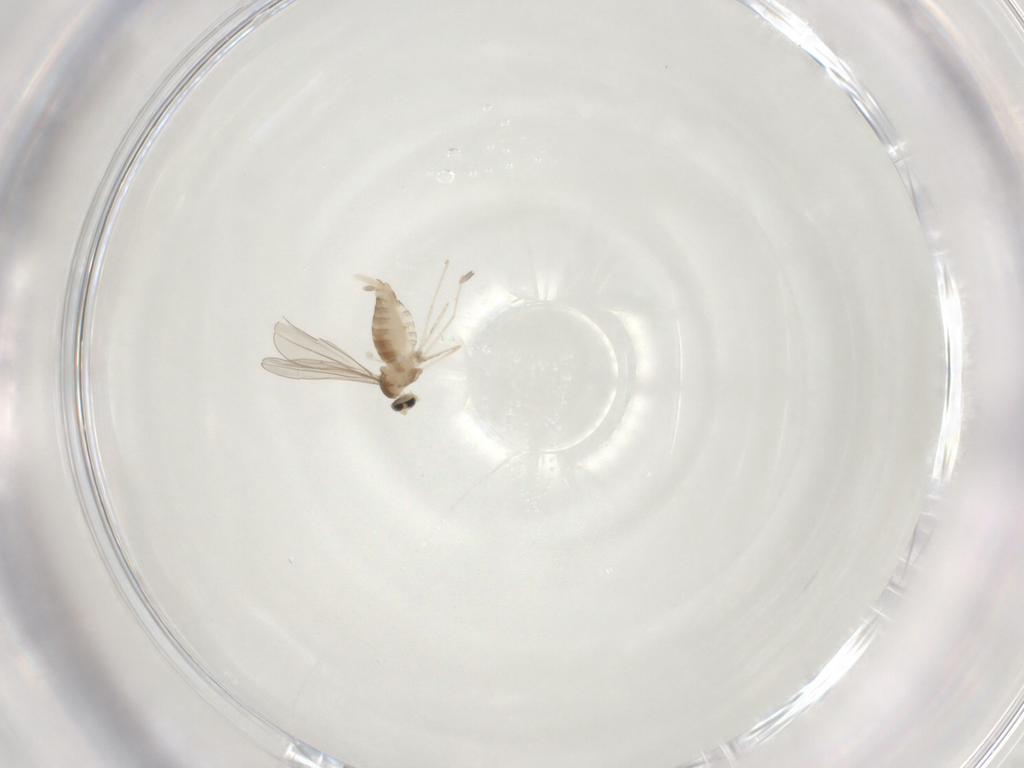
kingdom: Animalia
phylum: Arthropoda
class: Insecta
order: Diptera
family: Cecidomyiidae
